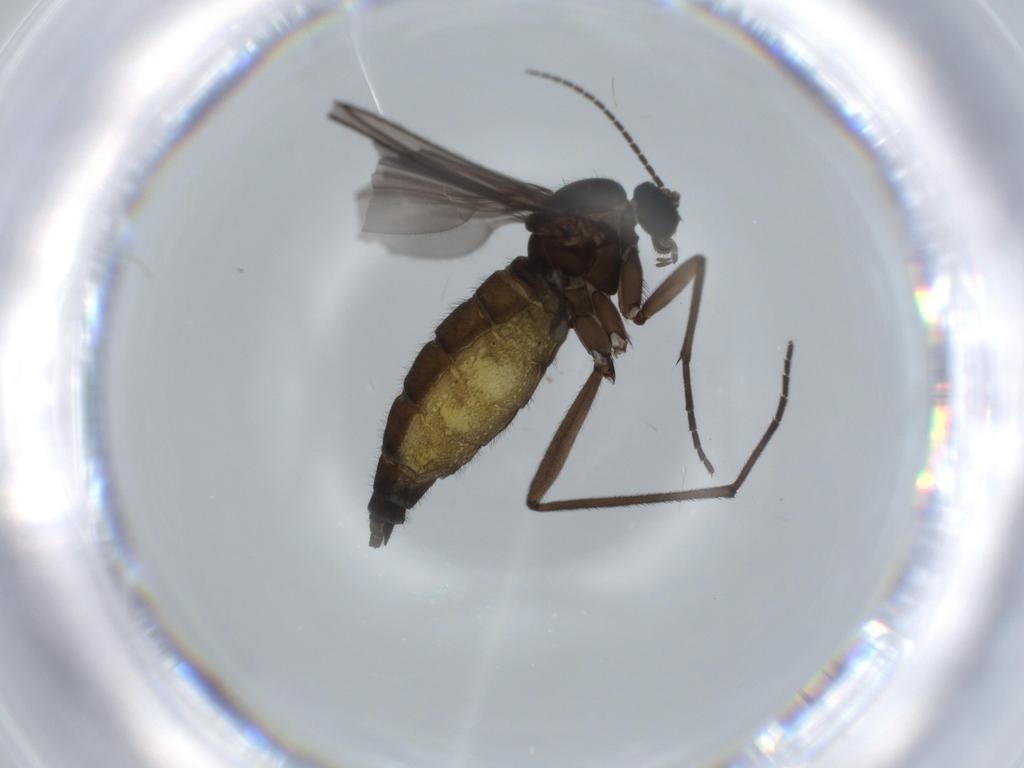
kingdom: Animalia
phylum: Arthropoda
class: Insecta
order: Diptera
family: Sciaridae
